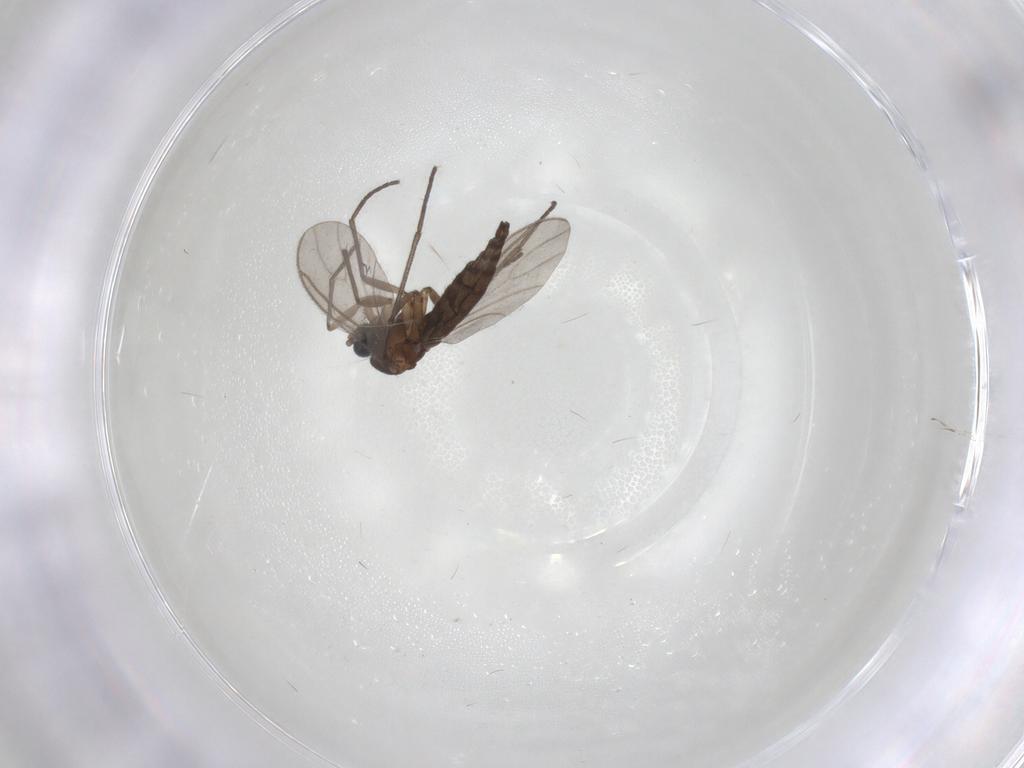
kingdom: Animalia
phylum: Arthropoda
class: Insecta
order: Diptera
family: Sciaridae
